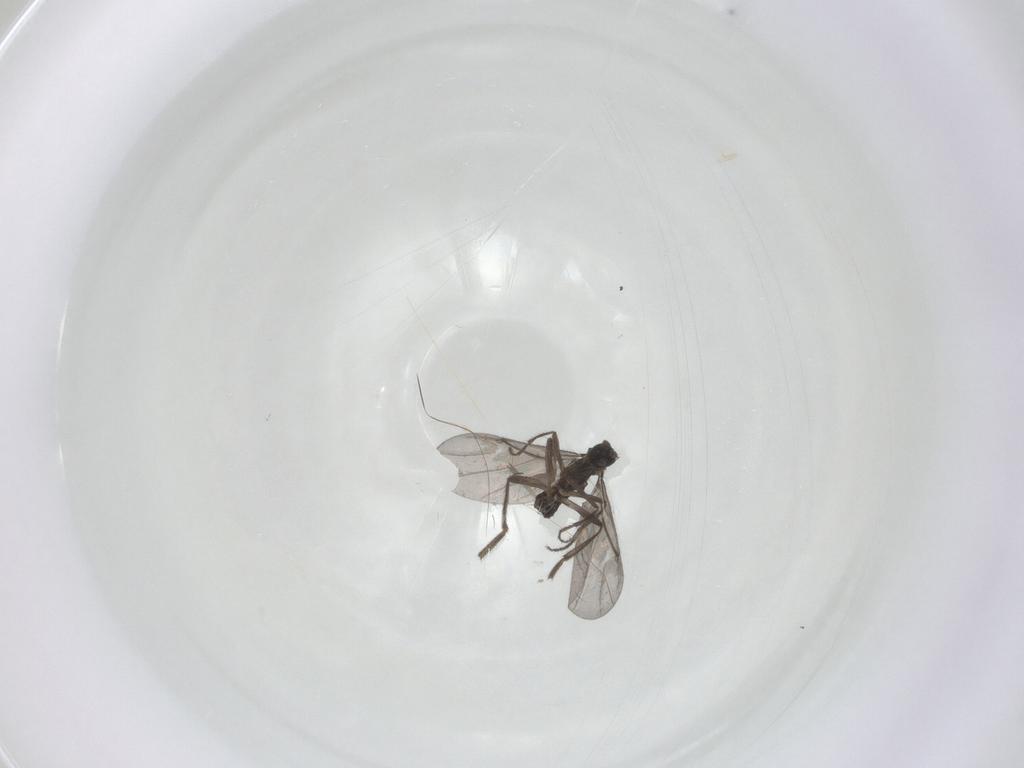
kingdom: Animalia
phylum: Arthropoda
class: Insecta
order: Diptera
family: Phoridae
